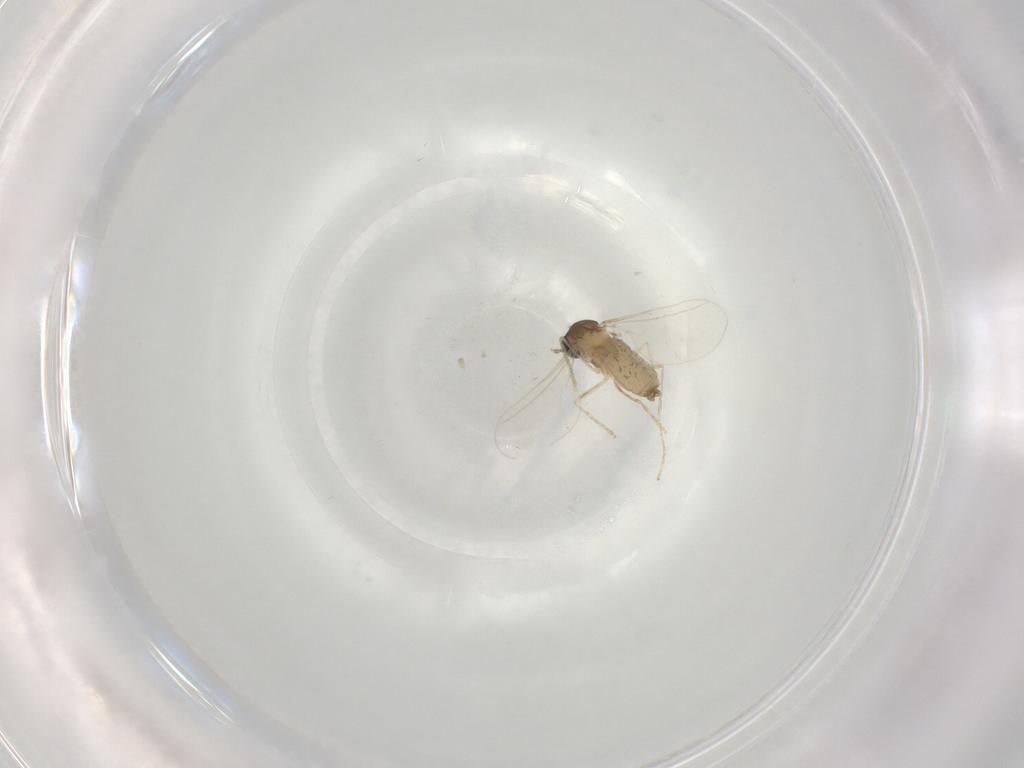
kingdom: Animalia
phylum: Arthropoda
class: Insecta
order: Diptera
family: Cecidomyiidae
